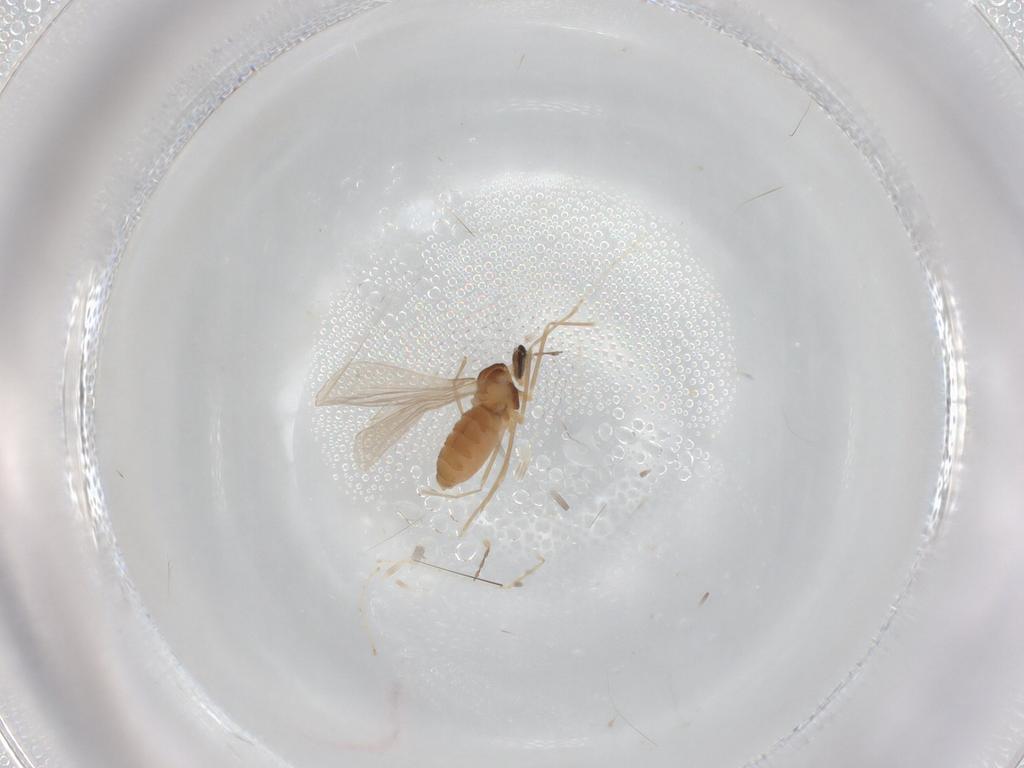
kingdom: Animalia
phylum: Arthropoda
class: Insecta
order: Diptera
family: Cecidomyiidae
